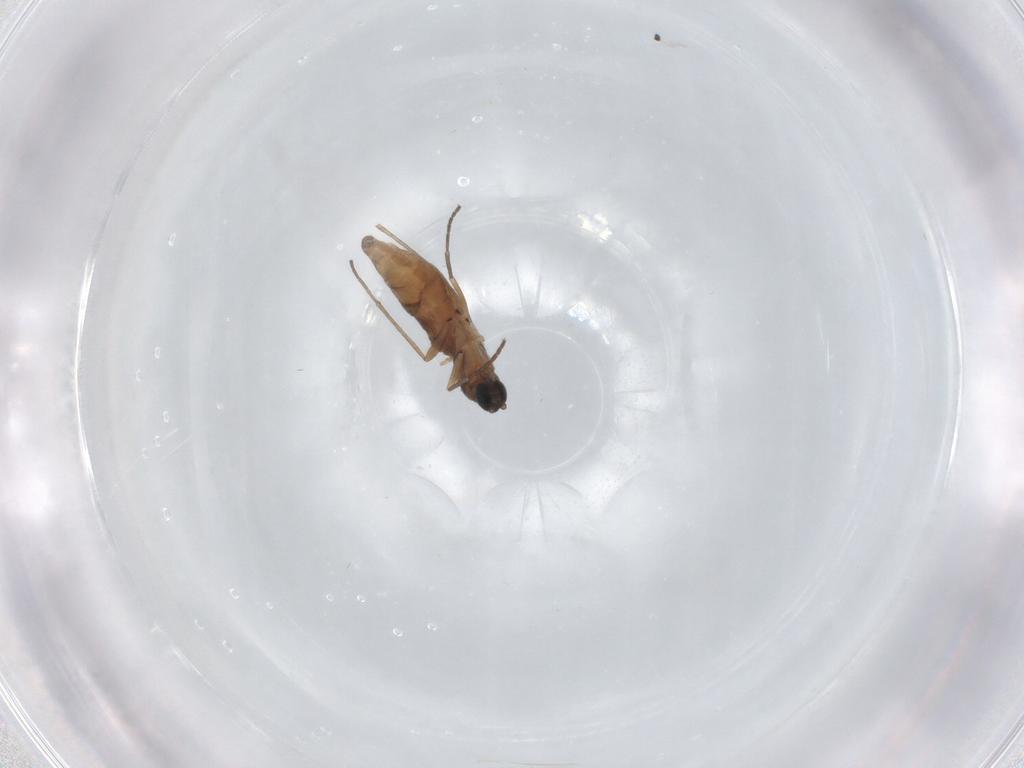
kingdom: Animalia
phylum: Arthropoda
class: Insecta
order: Diptera
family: Sciaridae
